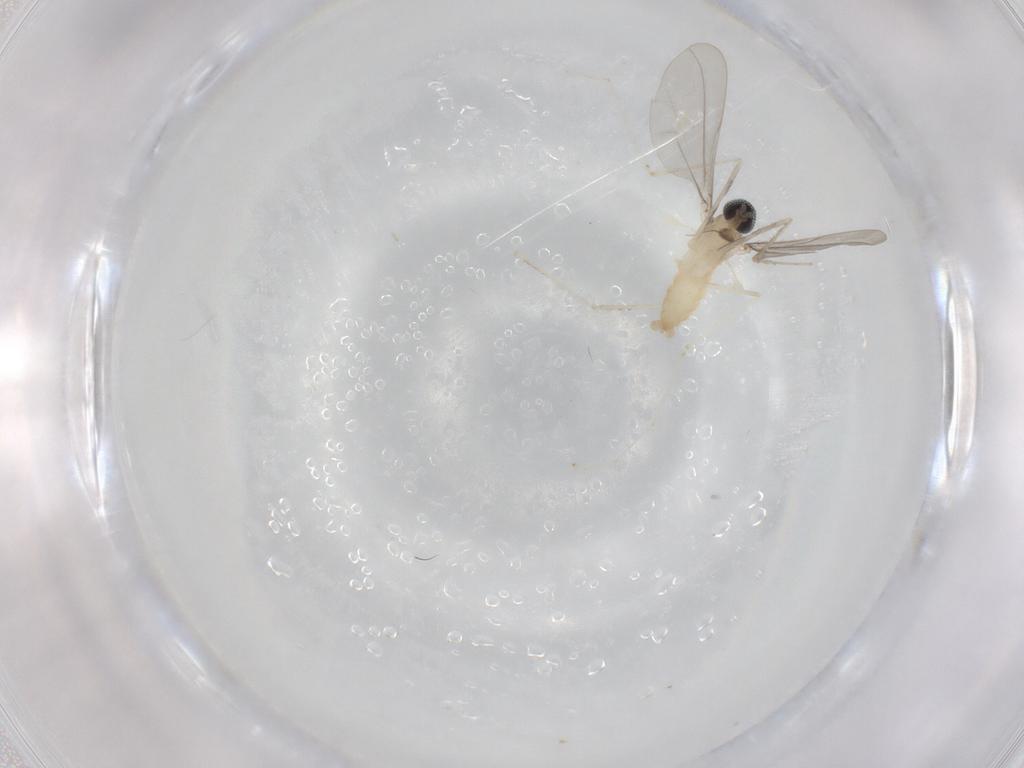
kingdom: Animalia
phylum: Arthropoda
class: Insecta
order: Diptera
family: Cecidomyiidae
